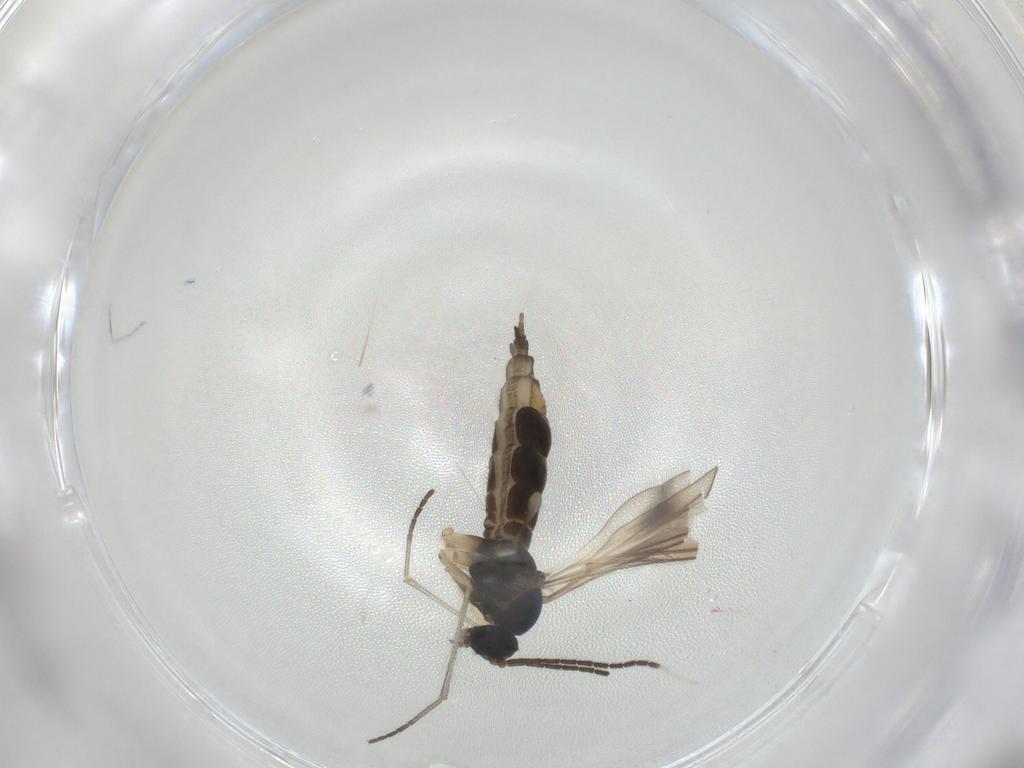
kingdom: Animalia
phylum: Arthropoda
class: Insecta
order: Diptera
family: Sciaridae
